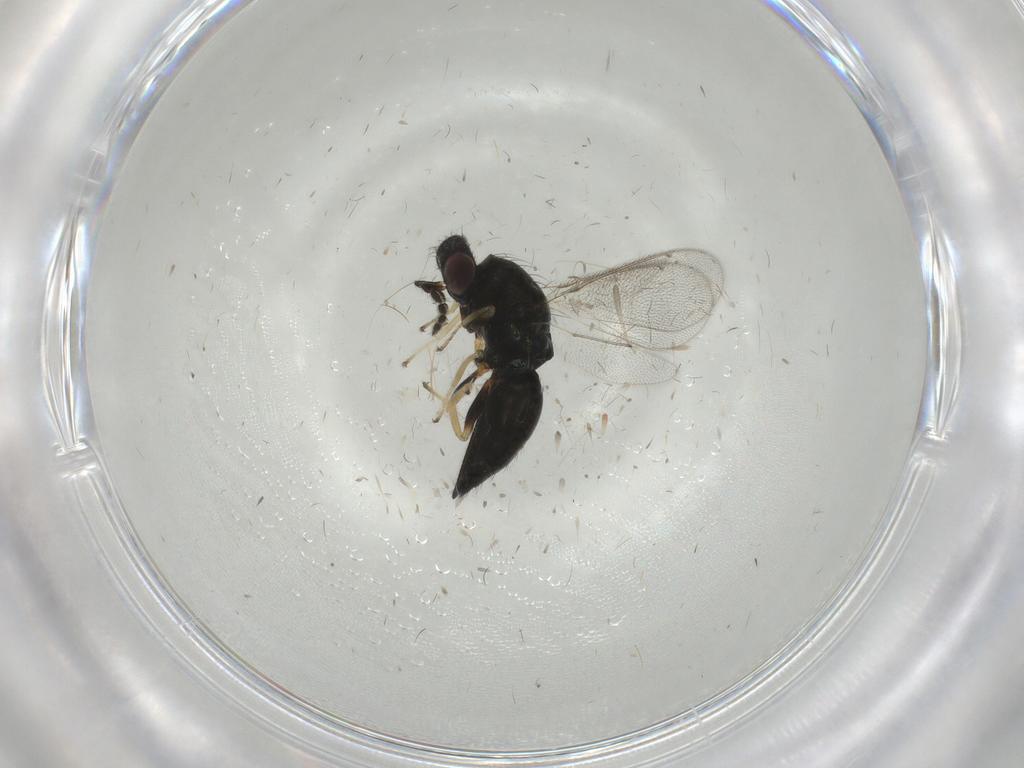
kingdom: Animalia
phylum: Arthropoda
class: Insecta
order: Hymenoptera
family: Eulophidae
